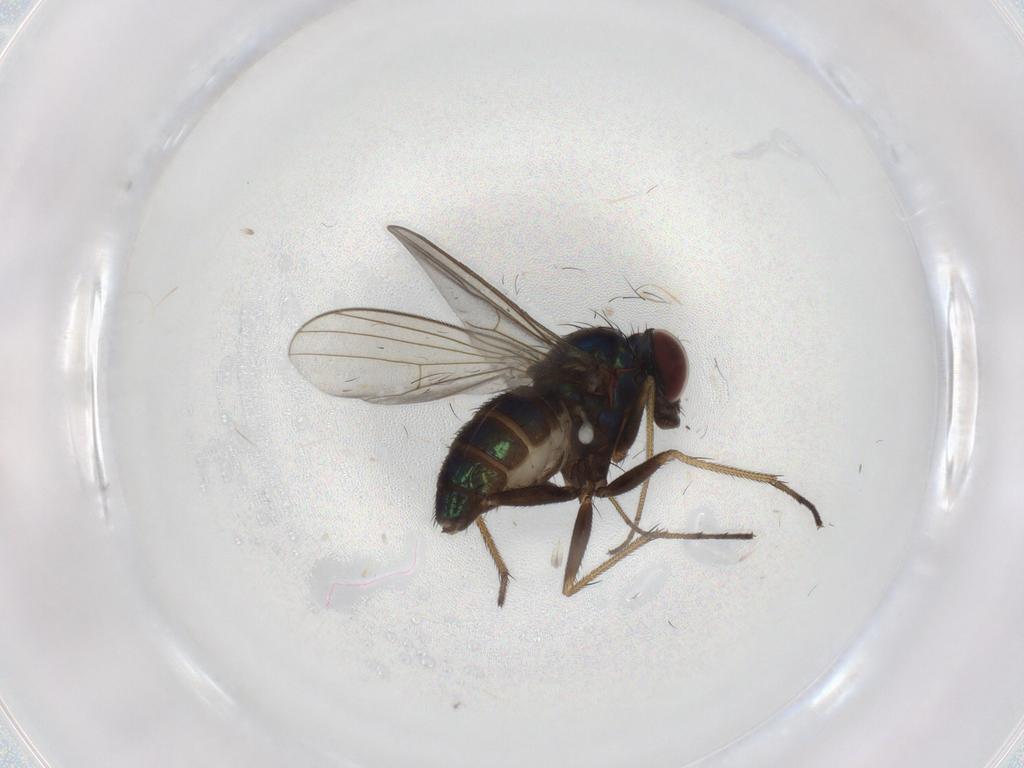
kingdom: Animalia
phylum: Arthropoda
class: Insecta
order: Diptera
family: Dolichopodidae
